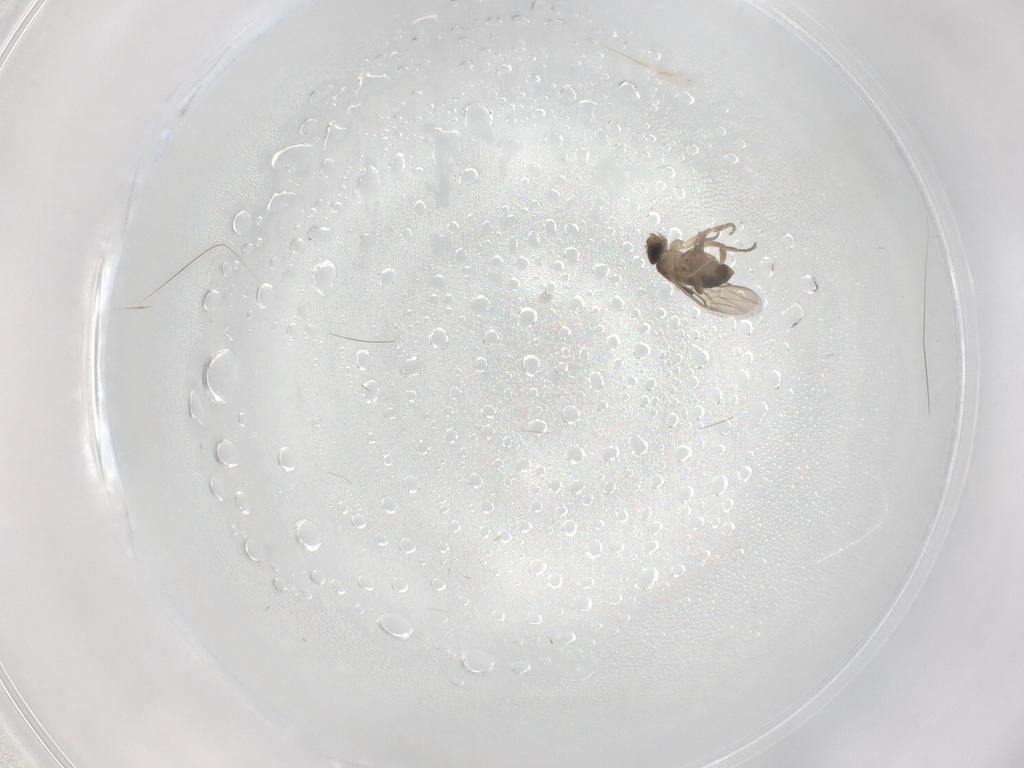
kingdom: Animalia
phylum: Arthropoda
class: Insecta
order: Diptera
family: Phoridae
